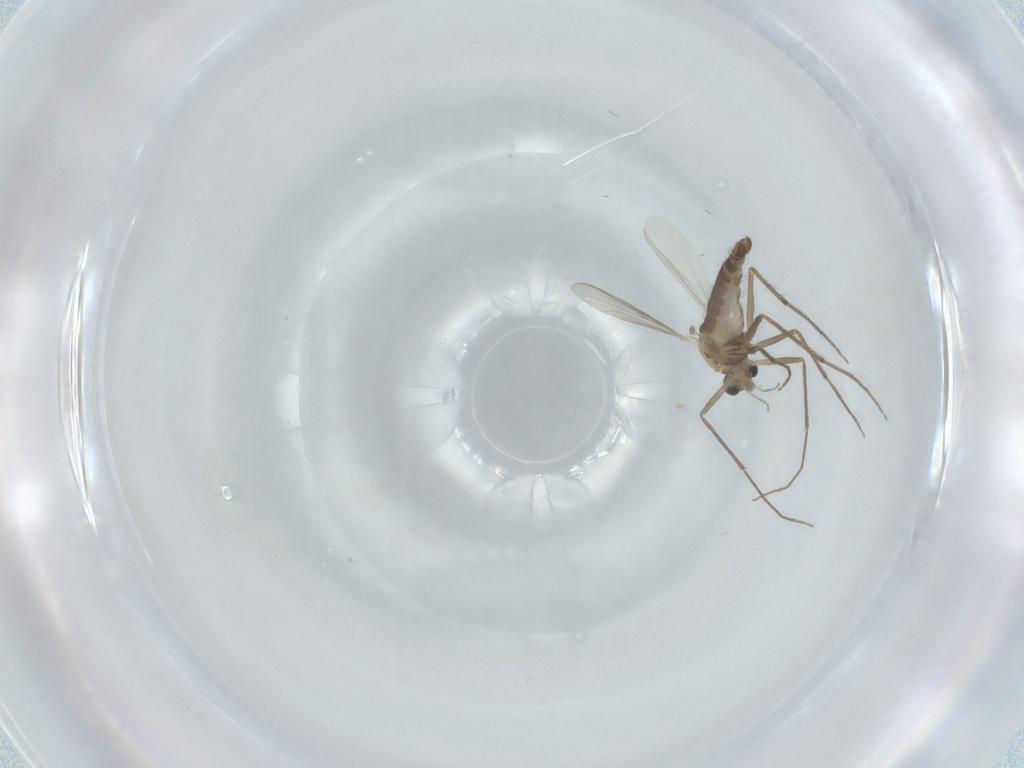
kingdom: Animalia
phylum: Arthropoda
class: Insecta
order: Diptera
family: Chironomidae
